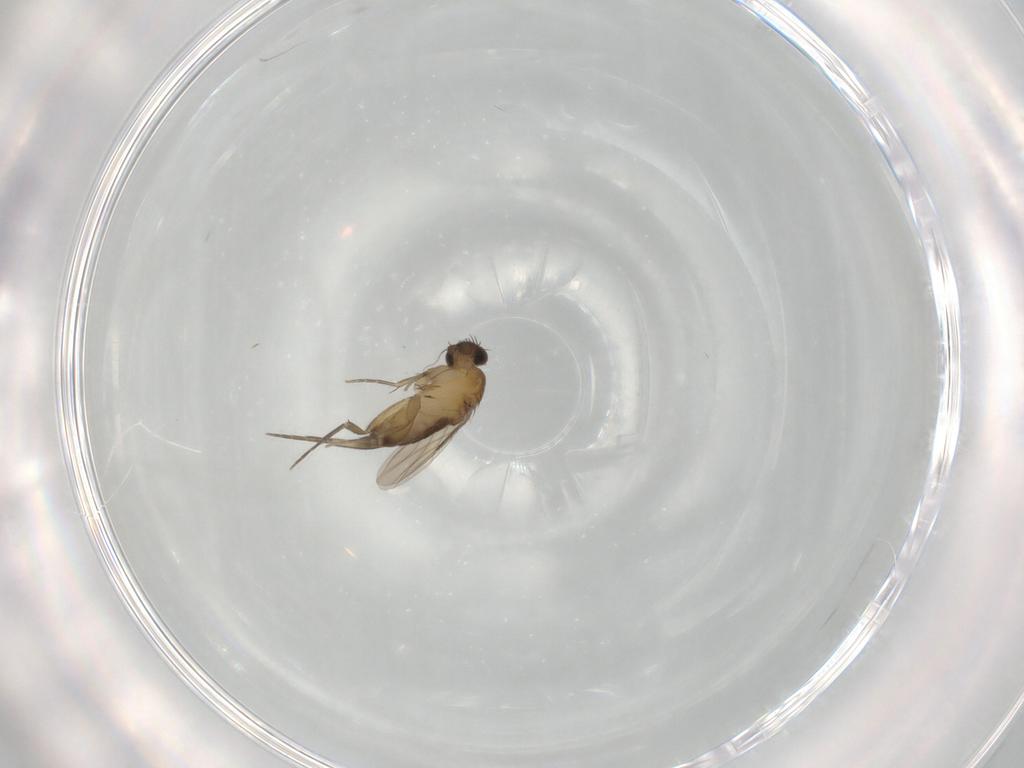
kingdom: Animalia
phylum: Arthropoda
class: Insecta
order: Diptera
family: Phoridae
